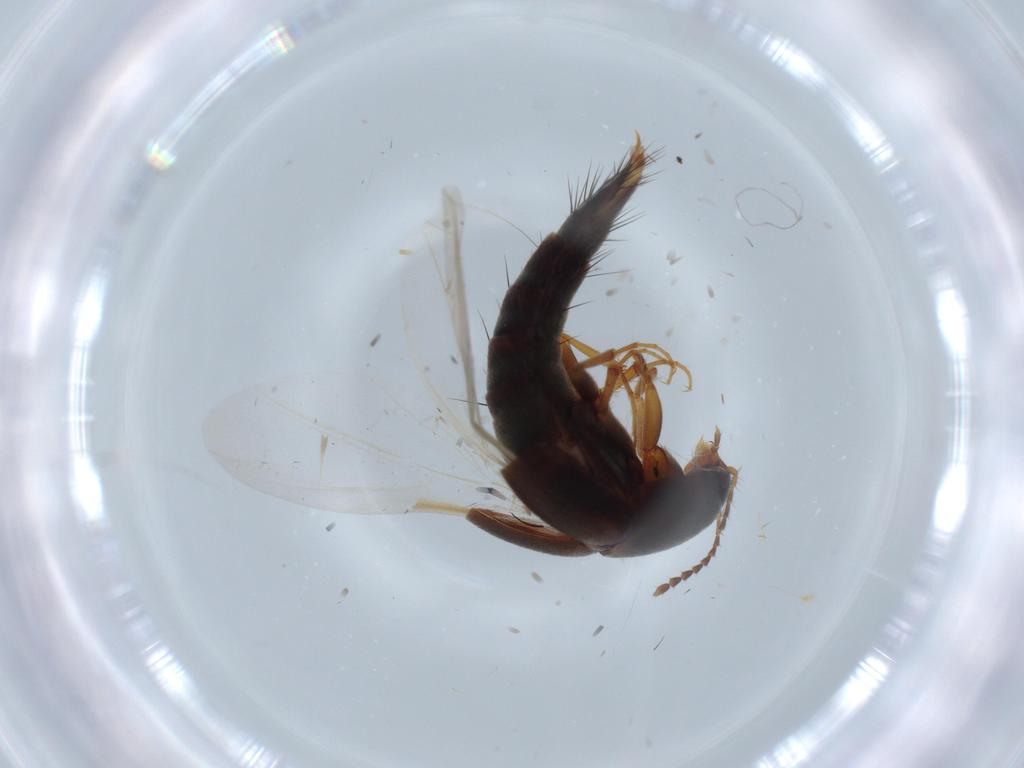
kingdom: Animalia
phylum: Arthropoda
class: Insecta
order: Coleoptera
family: Staphylinidae
